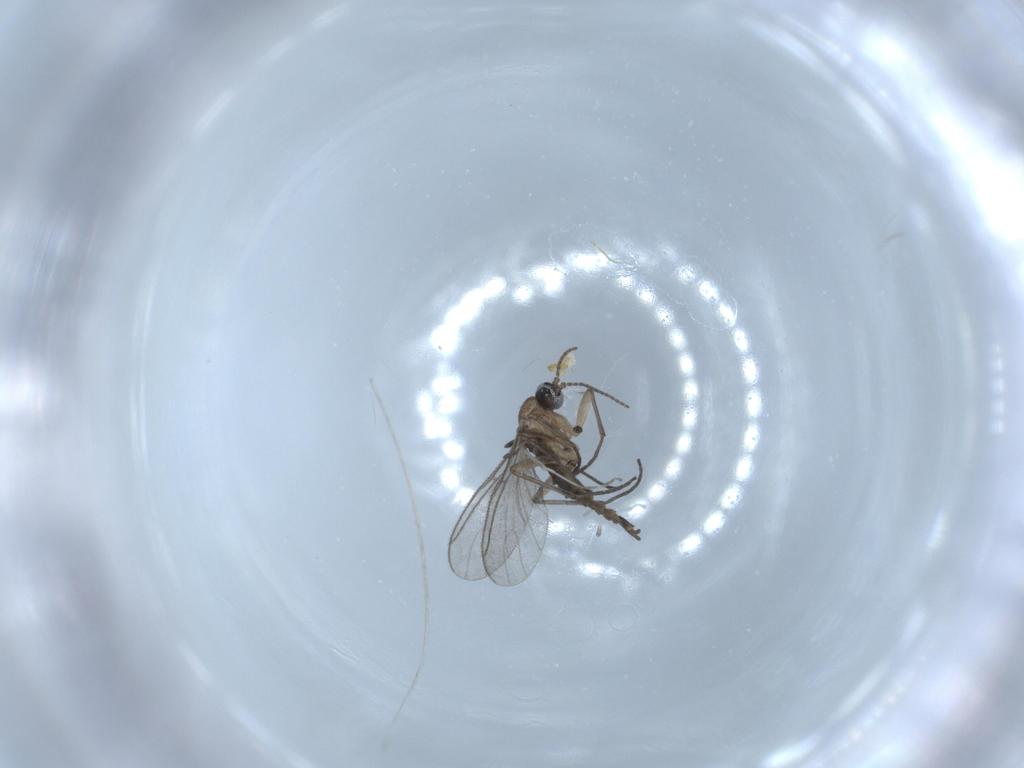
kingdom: Animalia
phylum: Arthropoda
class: Insecta
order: Diptera
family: Sciaridae
